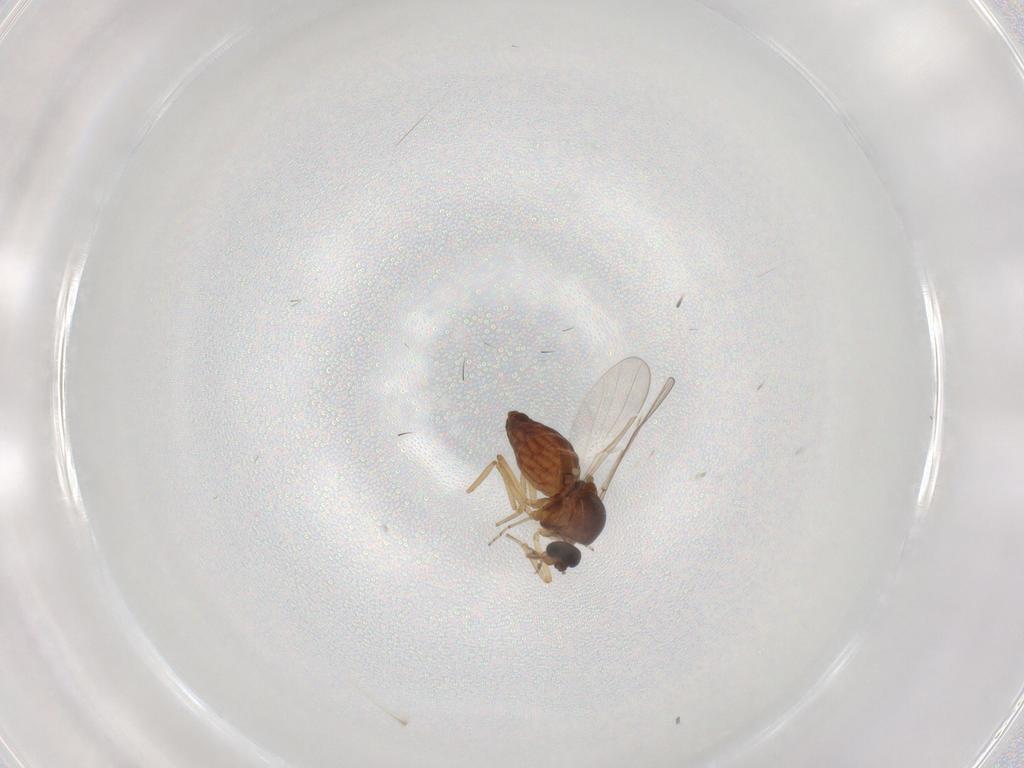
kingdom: Animalia
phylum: Arthropoda
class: Insecta
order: Diptera
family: Ceratopogonidae
